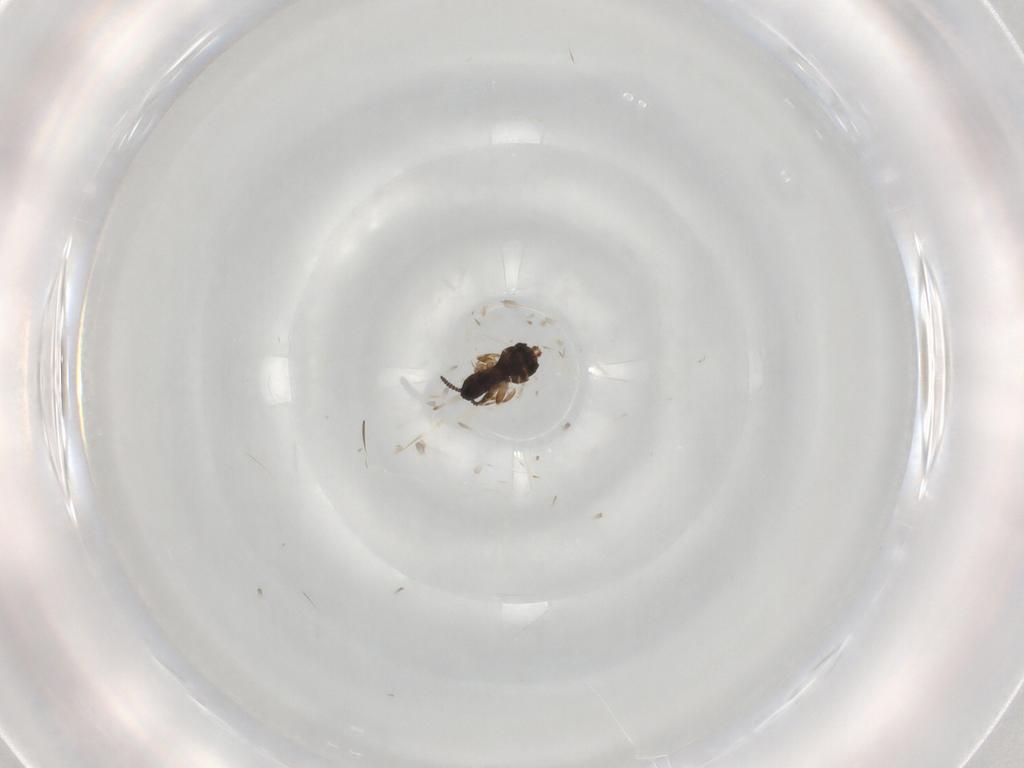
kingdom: Animalia
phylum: Arthropoda
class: Insecta
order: Diptera
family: Scatopsidae
